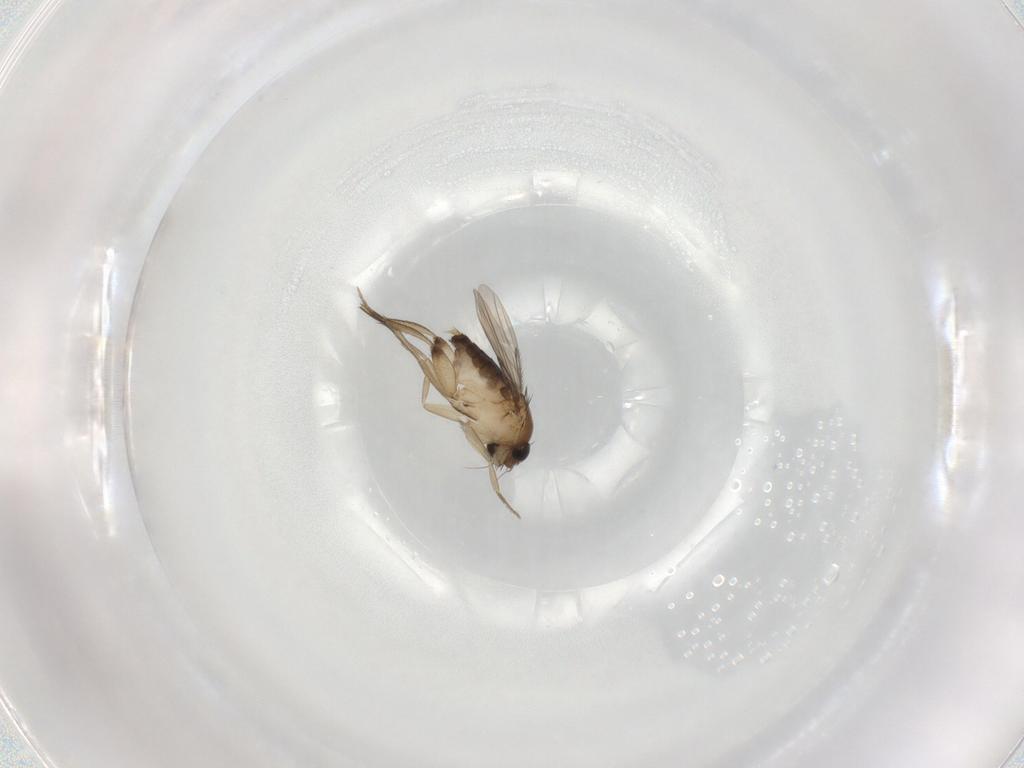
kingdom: Animalia
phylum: Arthropoda
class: Insecta
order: Diptera
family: Phoridae
